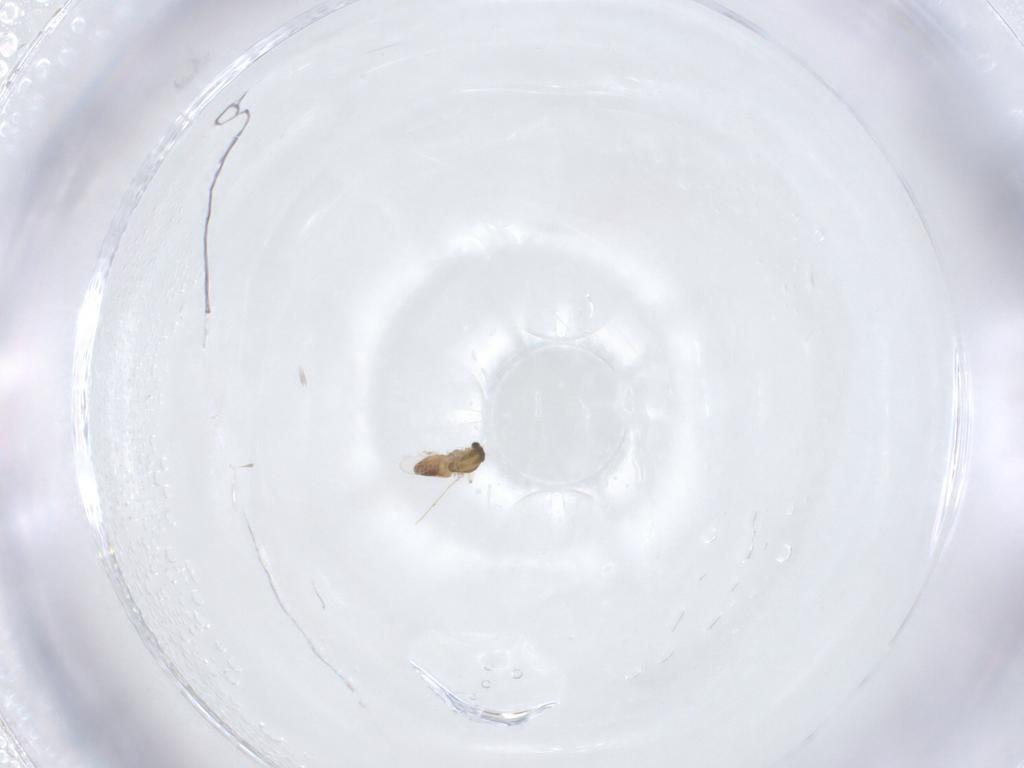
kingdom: Animalia
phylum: Arthropoda
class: Insecta
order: Diptera
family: Chironomidae
